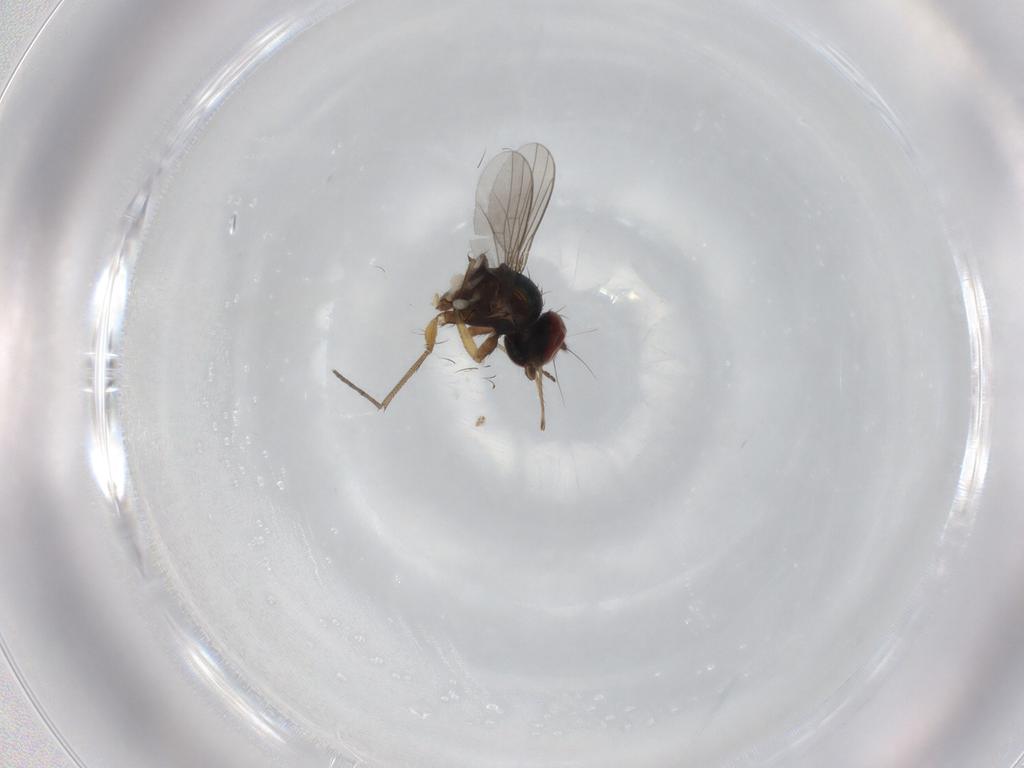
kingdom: Animalia
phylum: Arthropoda
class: Insecta
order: Diptera
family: Dolichopodidae
